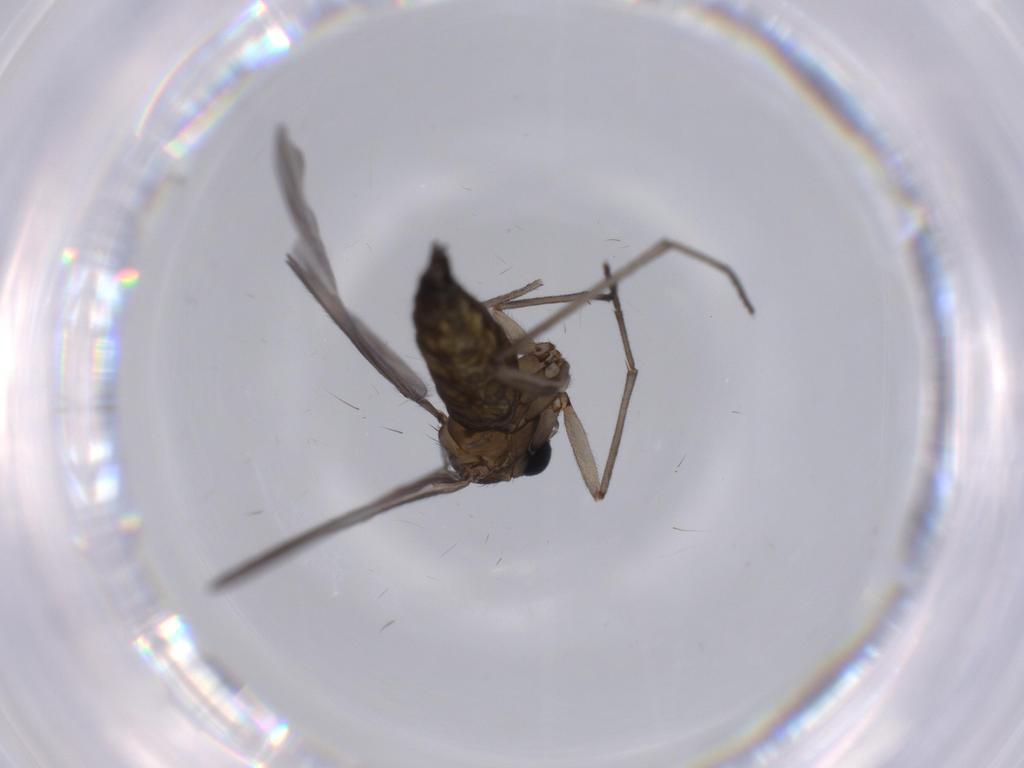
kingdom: Animalia
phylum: Arthropoda
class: Insecta
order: Diptera
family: Sciaridae
